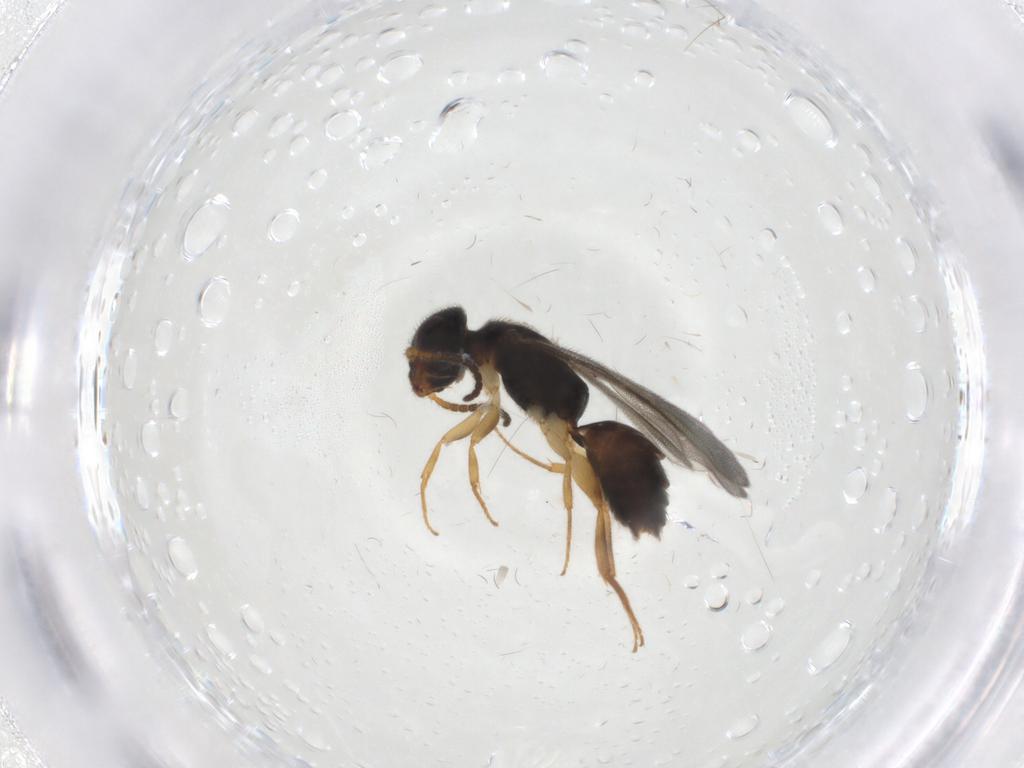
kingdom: Animalia
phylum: Arthropoda
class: Insecta
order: Hymenoptera
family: Bethylidae
